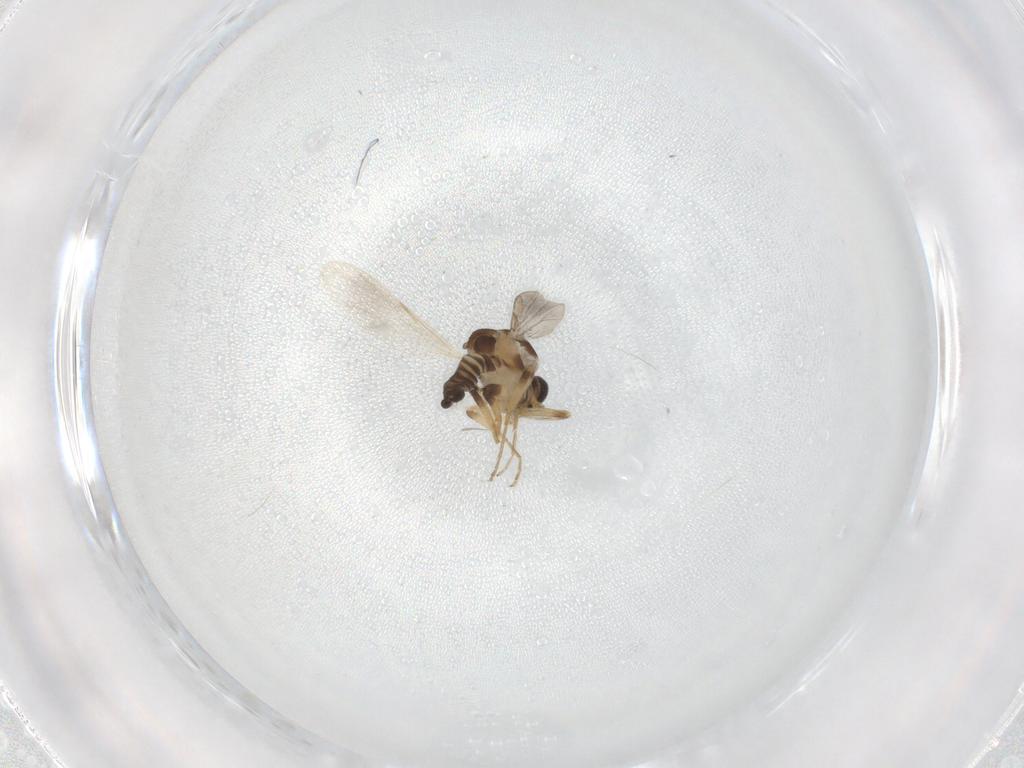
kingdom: Animalia
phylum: Arthropoda
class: Insecta
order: Diptera
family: Ceratopogonidae
